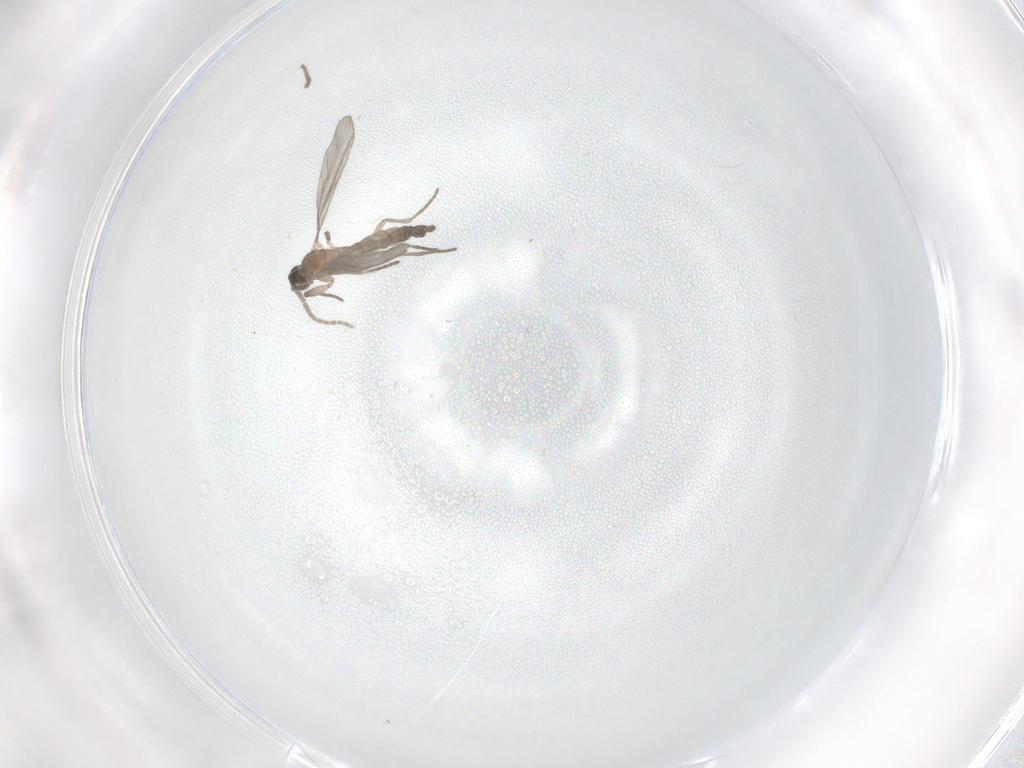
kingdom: Animalia
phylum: Arthropoda
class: Insecta
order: Diptera
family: Sciaridae
